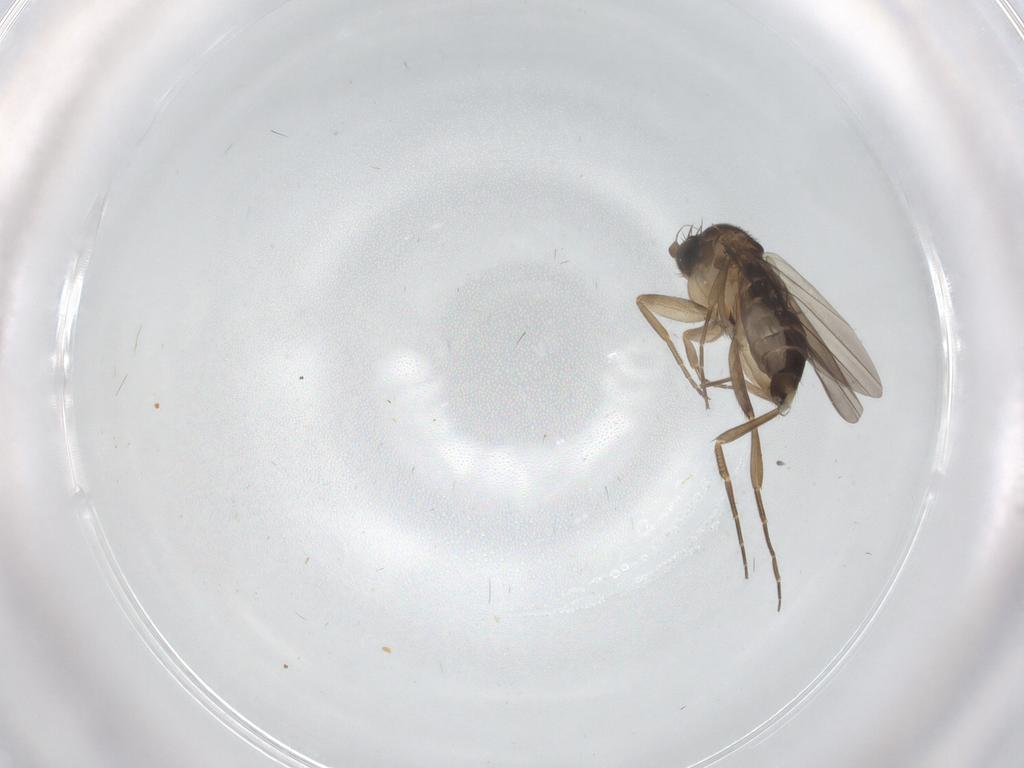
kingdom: Animalia
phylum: Arthropoda
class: Insecta
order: Diptera
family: Phoridae
